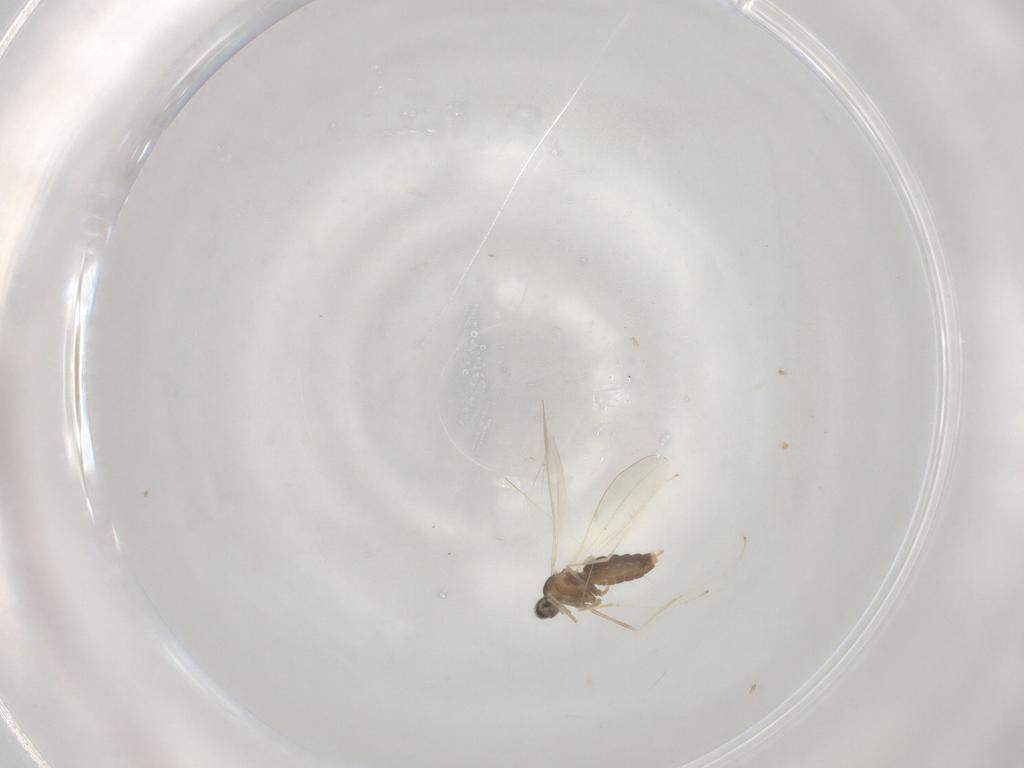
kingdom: Animalia
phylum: Arthropoda
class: Insecta
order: Diptera
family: Cecidomyiidae
